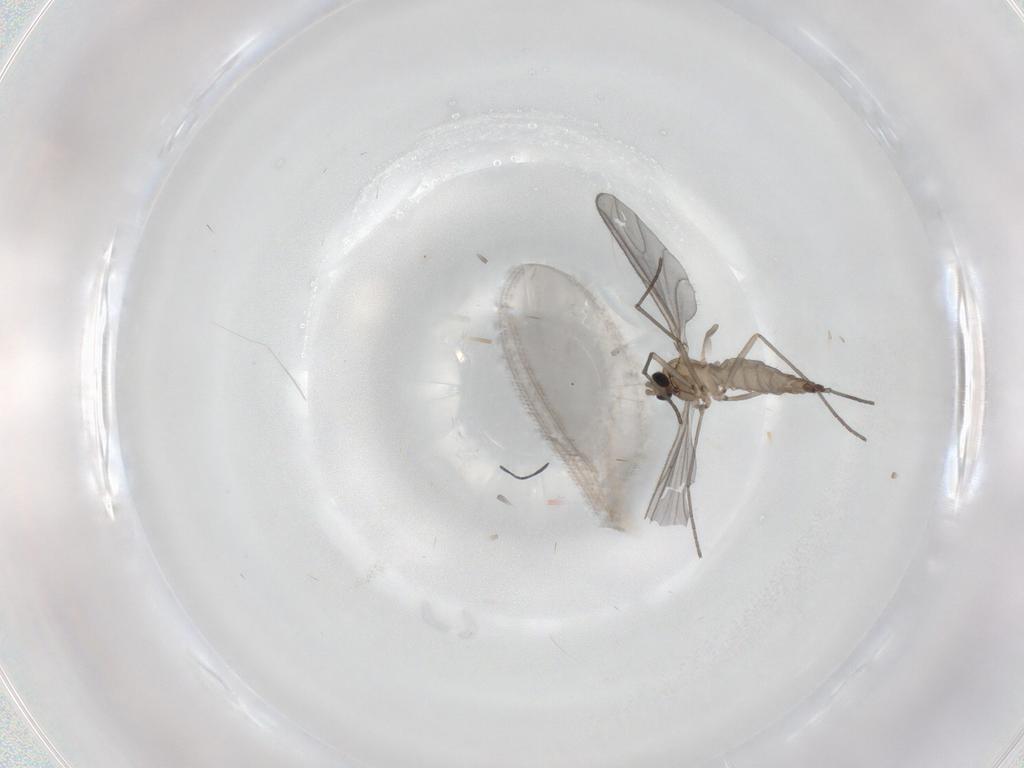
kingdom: Animalia
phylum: Arthropoda
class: Insecta
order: Diptera
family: Sciaridae
